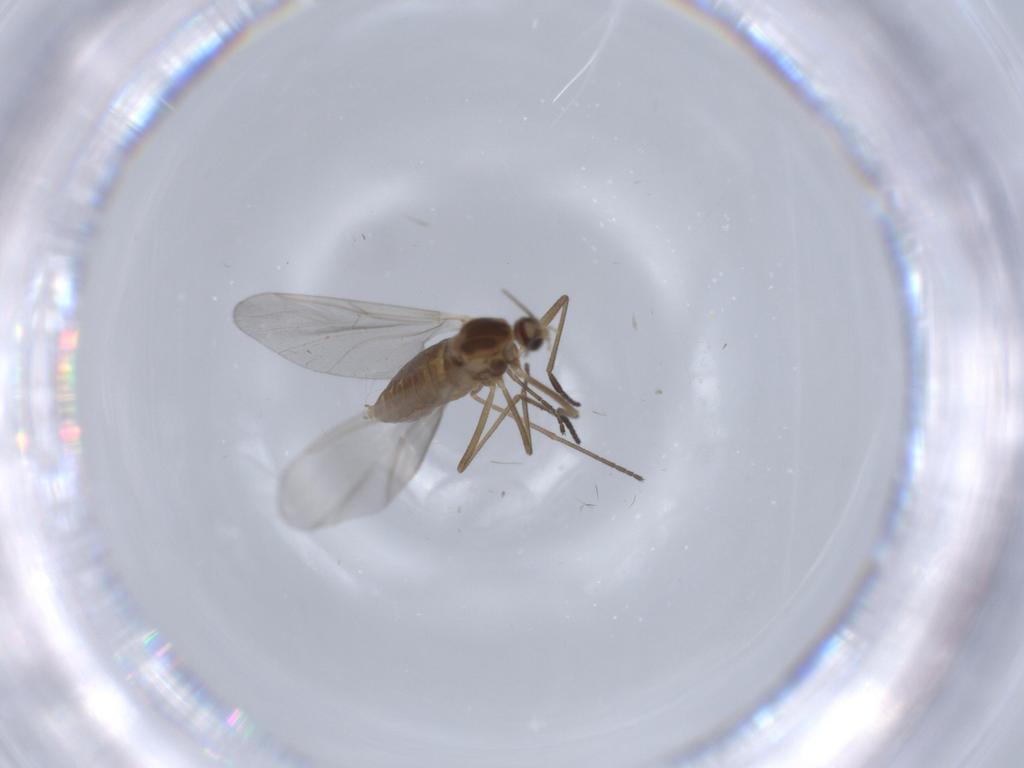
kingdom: Animalia
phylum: Arthropoda
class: Insecta
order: Diptera
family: Cecidomyiidae
